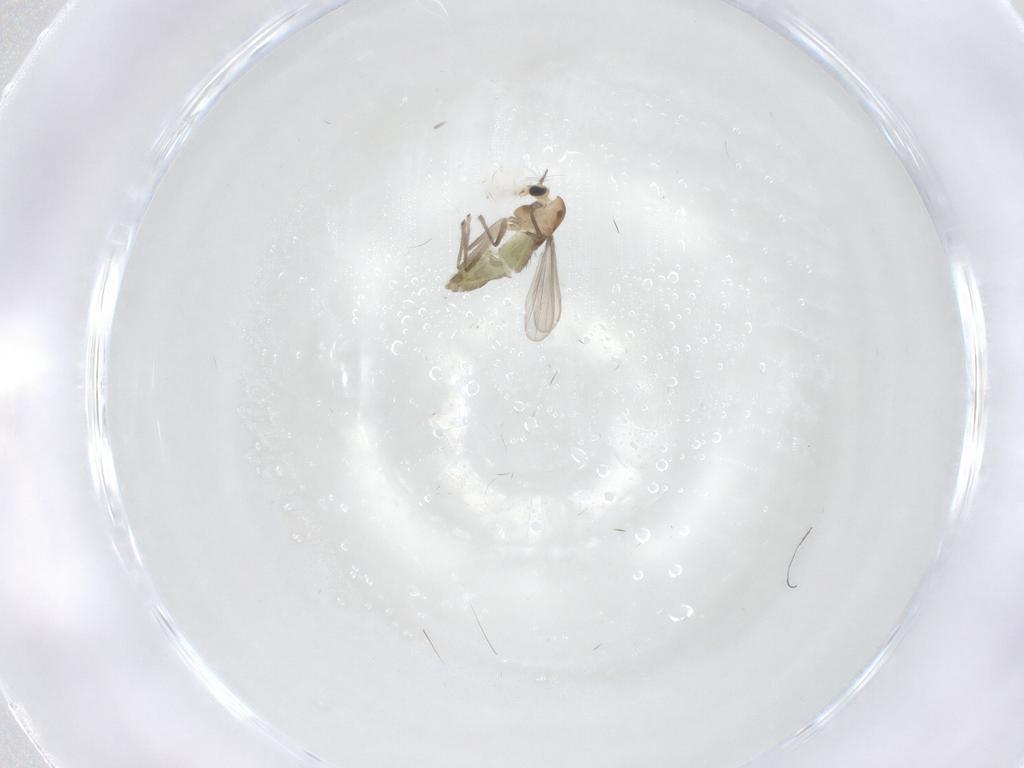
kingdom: Animalia
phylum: Arthropoda
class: Insecta
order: Diptera
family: Chironomidae
